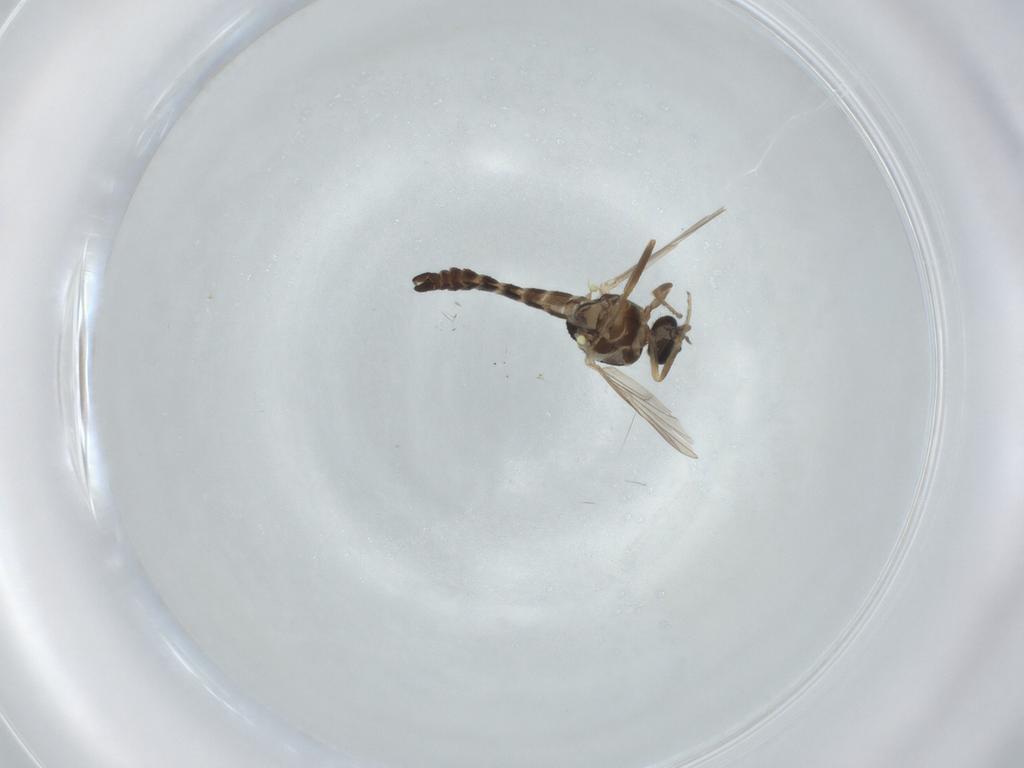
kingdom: Animalia
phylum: Arthropoda
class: Insecta
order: Diptera
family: Ceratopogonidae
